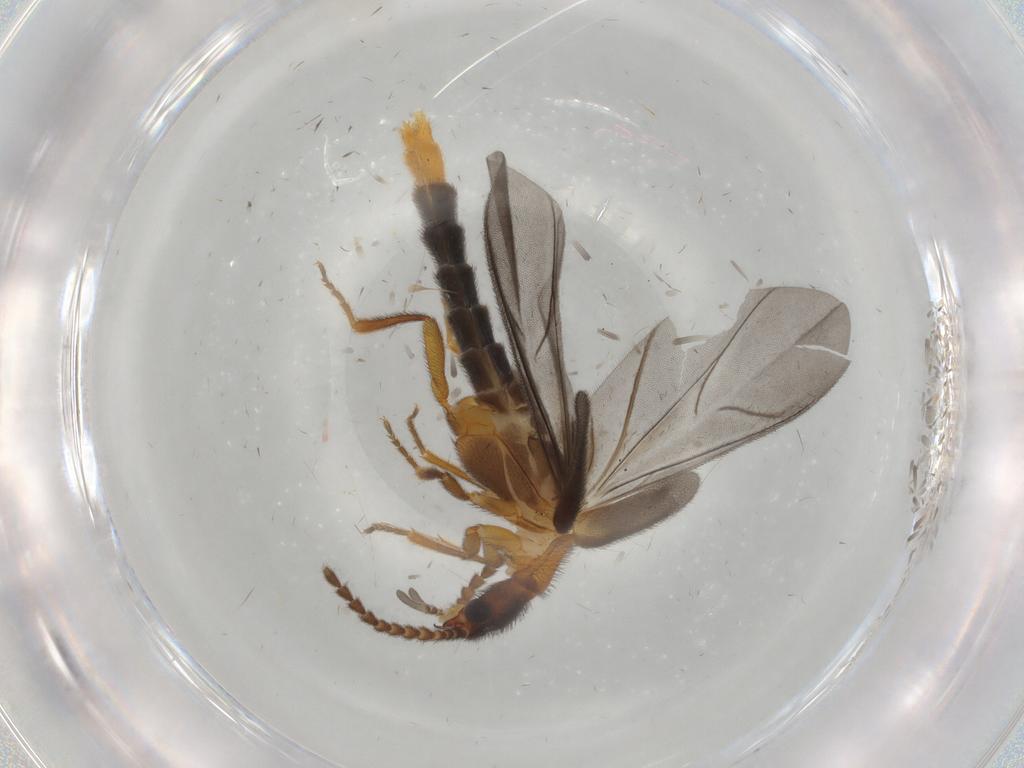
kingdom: Animalia
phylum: Arthropoda
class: Insecta
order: Coleoptera
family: Omethidae
